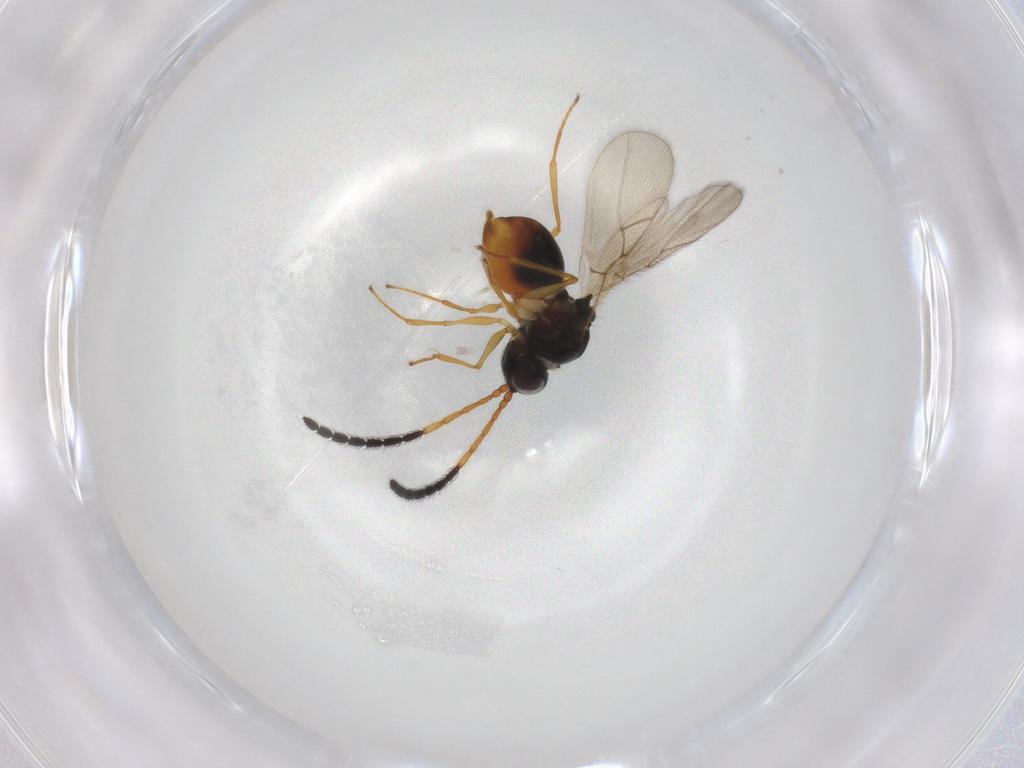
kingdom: Animalia
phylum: Arthropoda
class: Insecta
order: Hymenoptera
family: Figitidae
